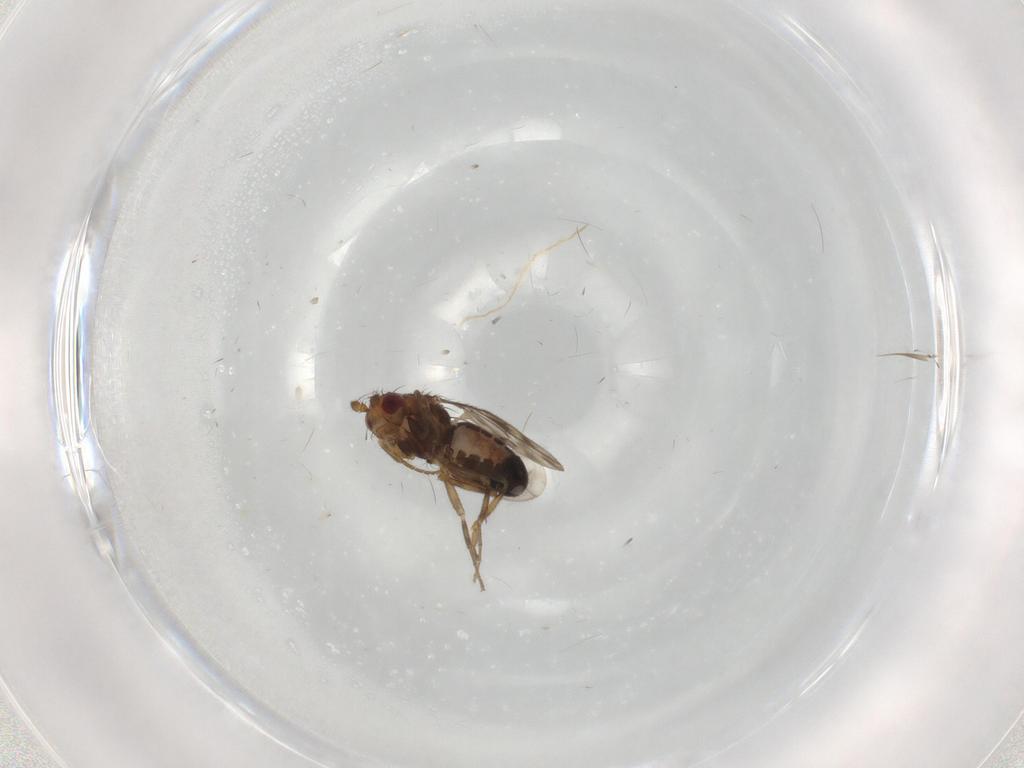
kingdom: Animalia
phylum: Arthropoda
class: Insecta
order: Diptera
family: Sphaeroceridae
